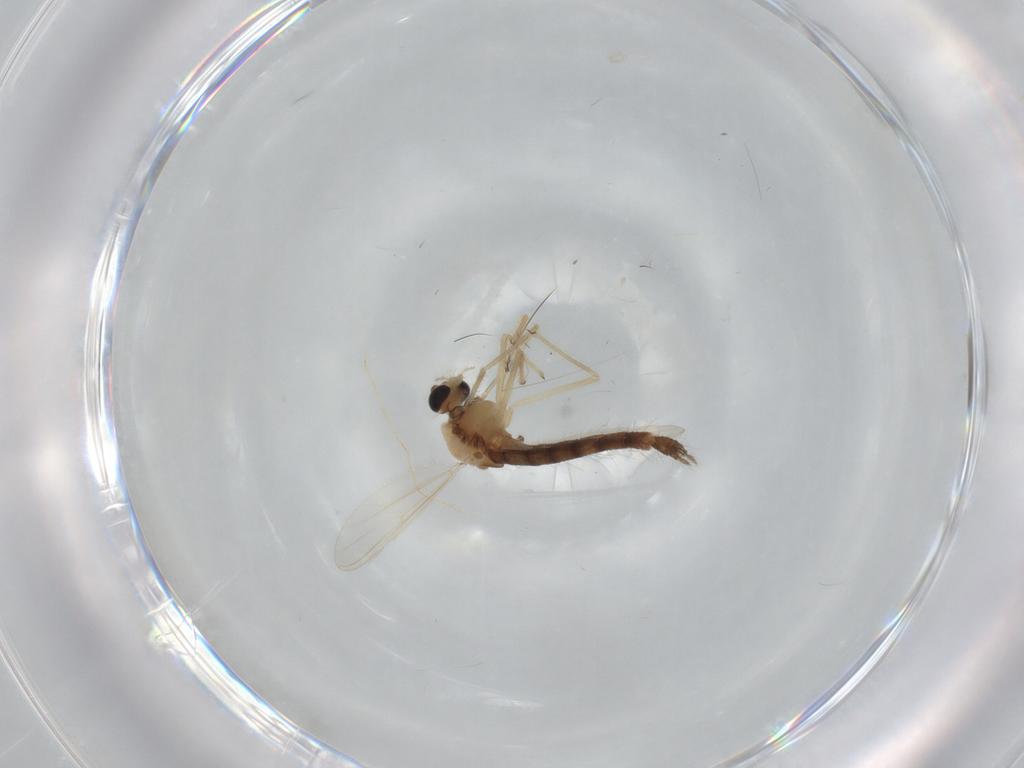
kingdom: Animalia
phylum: Arthropoda
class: Insecta
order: Diptera
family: Chironomidae
